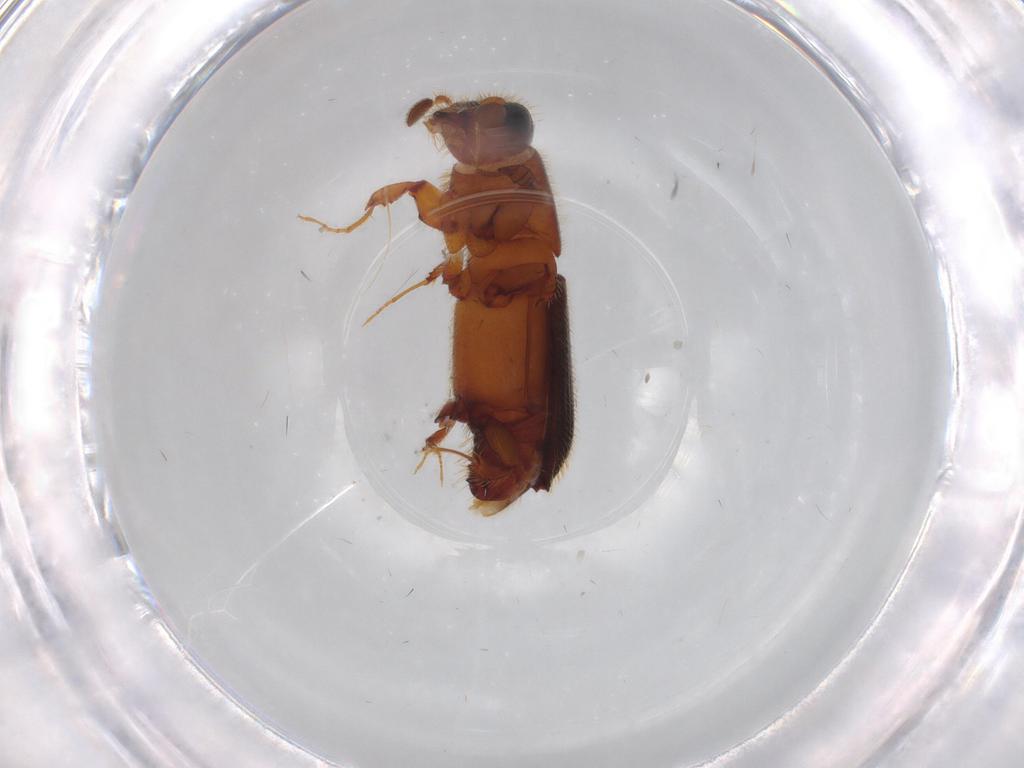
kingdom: Animalia
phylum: Arthropoda
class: Insecta
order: Coleoptera
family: Curculionidae
